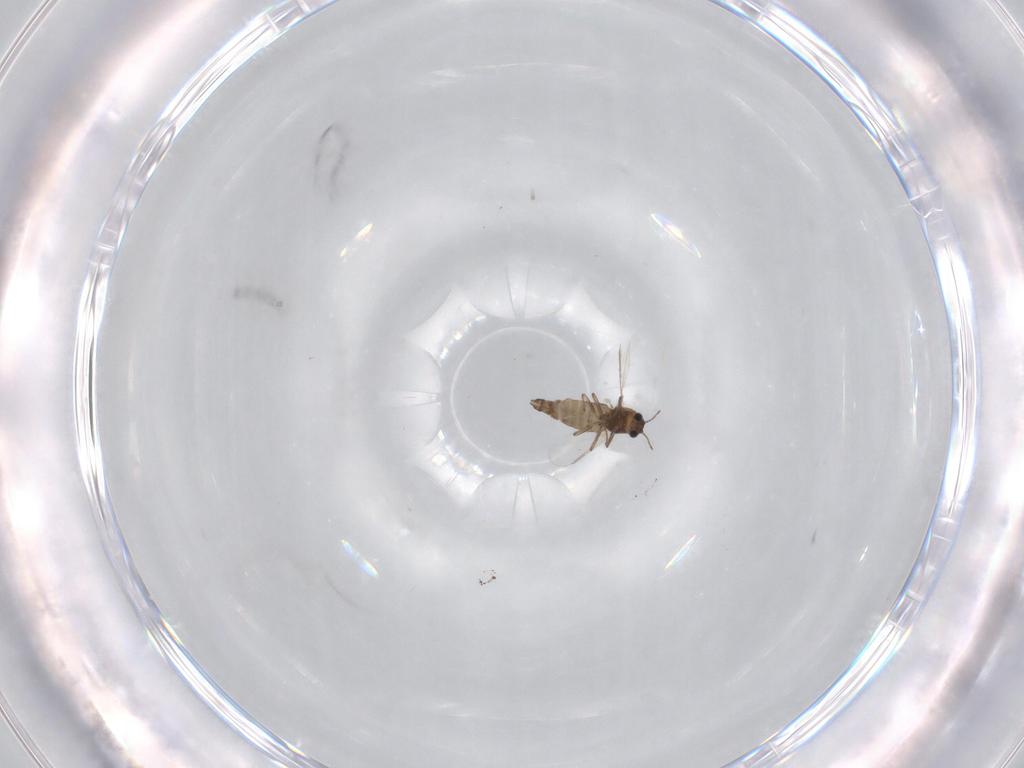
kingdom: Animalia
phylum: Arthropoda
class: Insecta
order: Diptera
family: Chironomidae
